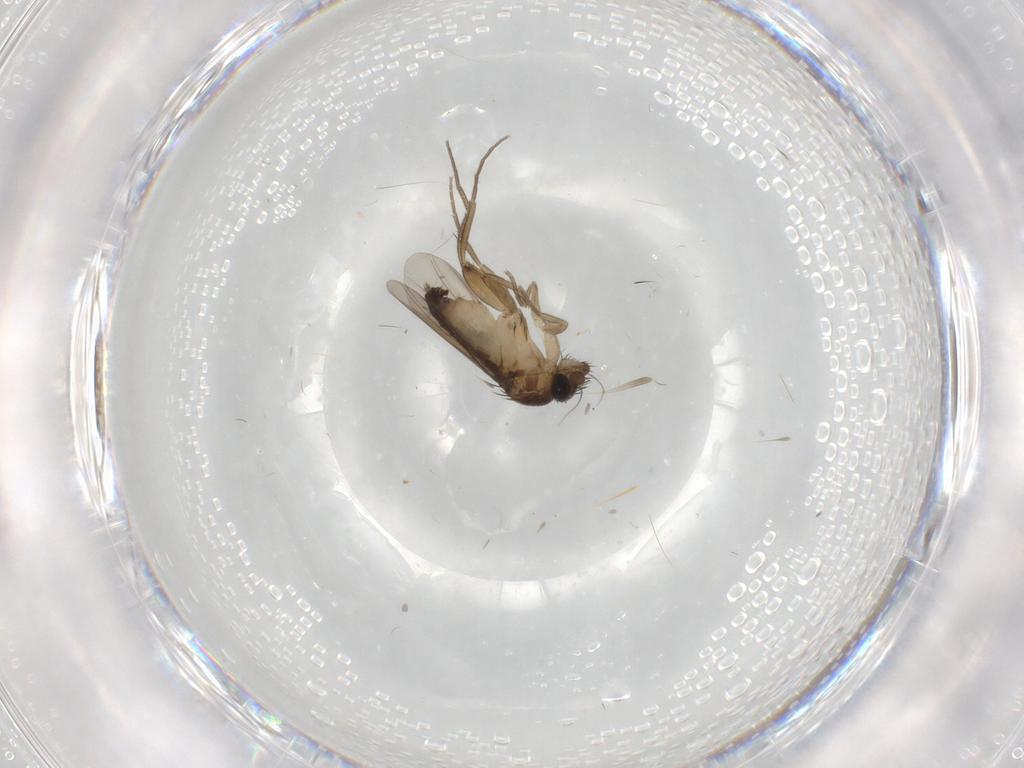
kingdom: Animalia
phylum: Arthropoda
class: Insecta
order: Diptera
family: Phoridae
